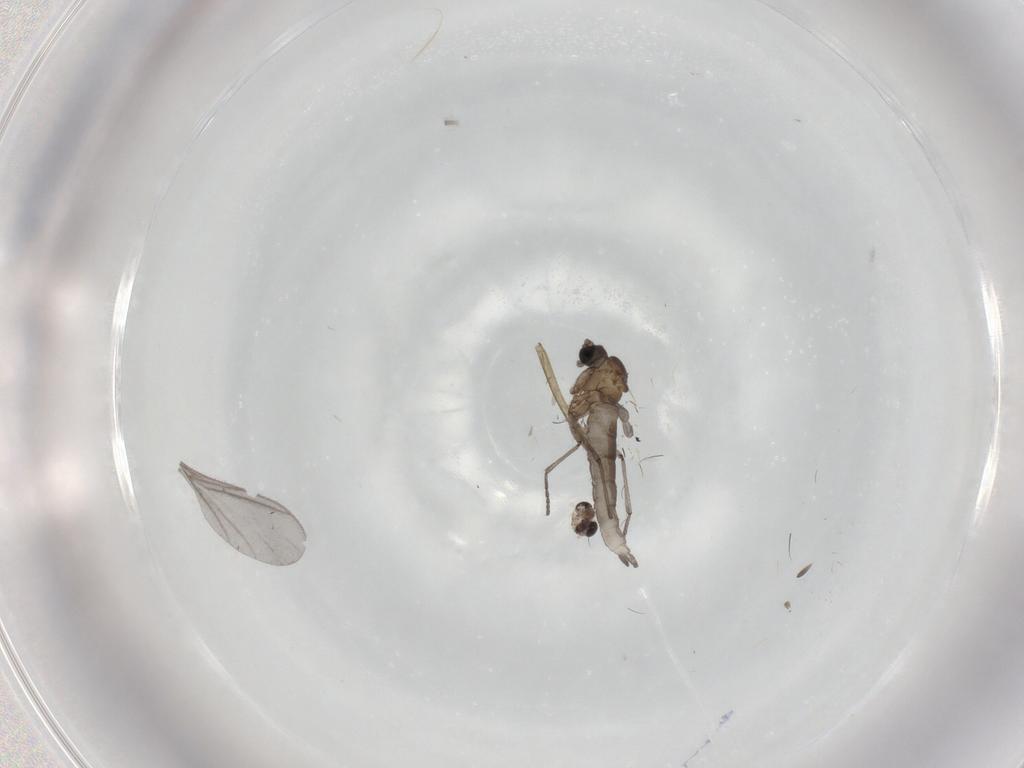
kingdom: Animalia
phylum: Arthropoda
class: Insecta
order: Diptera
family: Sciaridae
